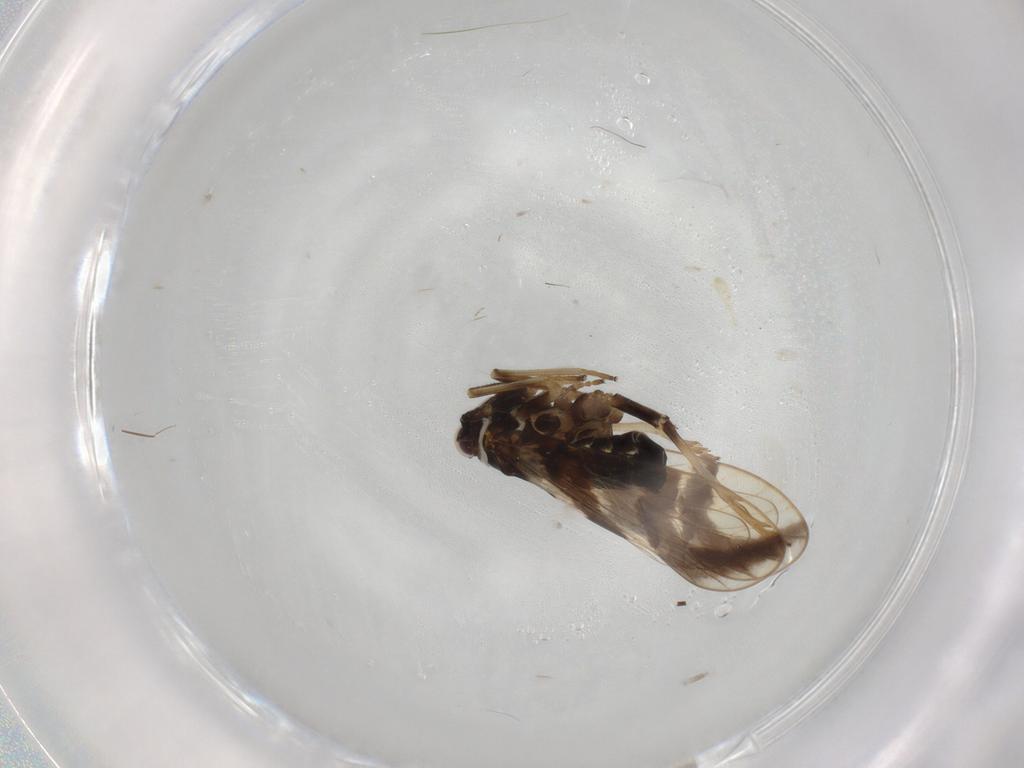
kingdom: Animalia
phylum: Arthropoda
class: Insecta
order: Hemiptera
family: Delphacidae
